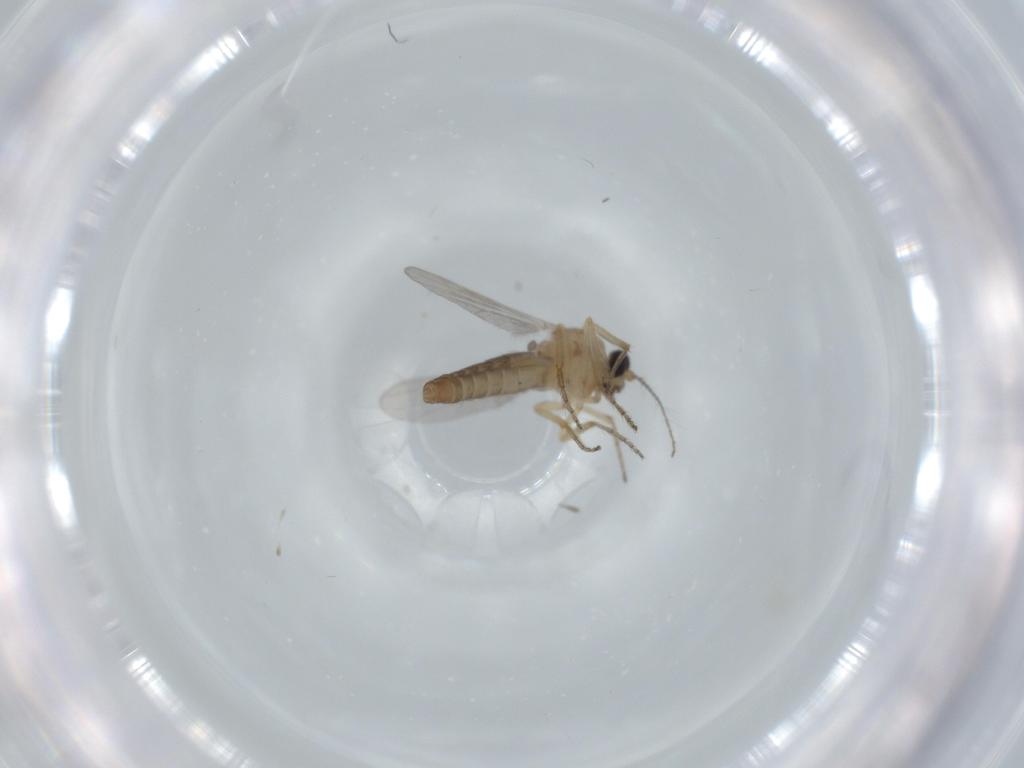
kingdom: Animalia
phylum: Arthropoda
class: Insecta
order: Diptera
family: Ceratopogonidae
